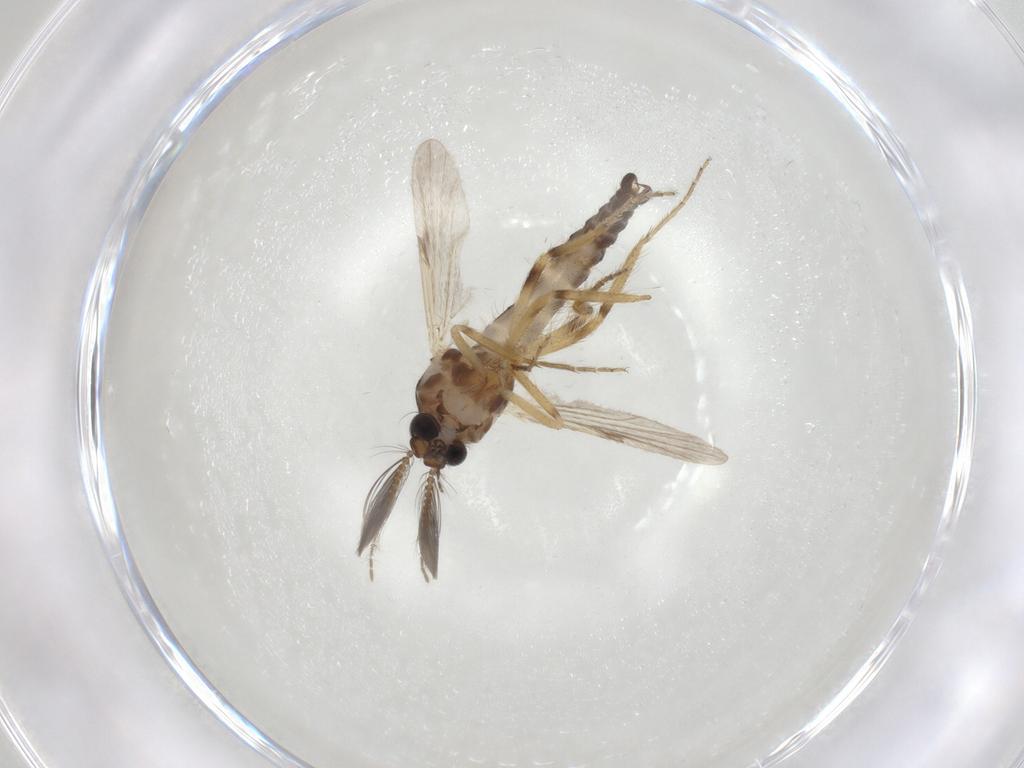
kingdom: Animalia
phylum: Arthropoda
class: Insecta
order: Diptera
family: Ceratopogonidae
